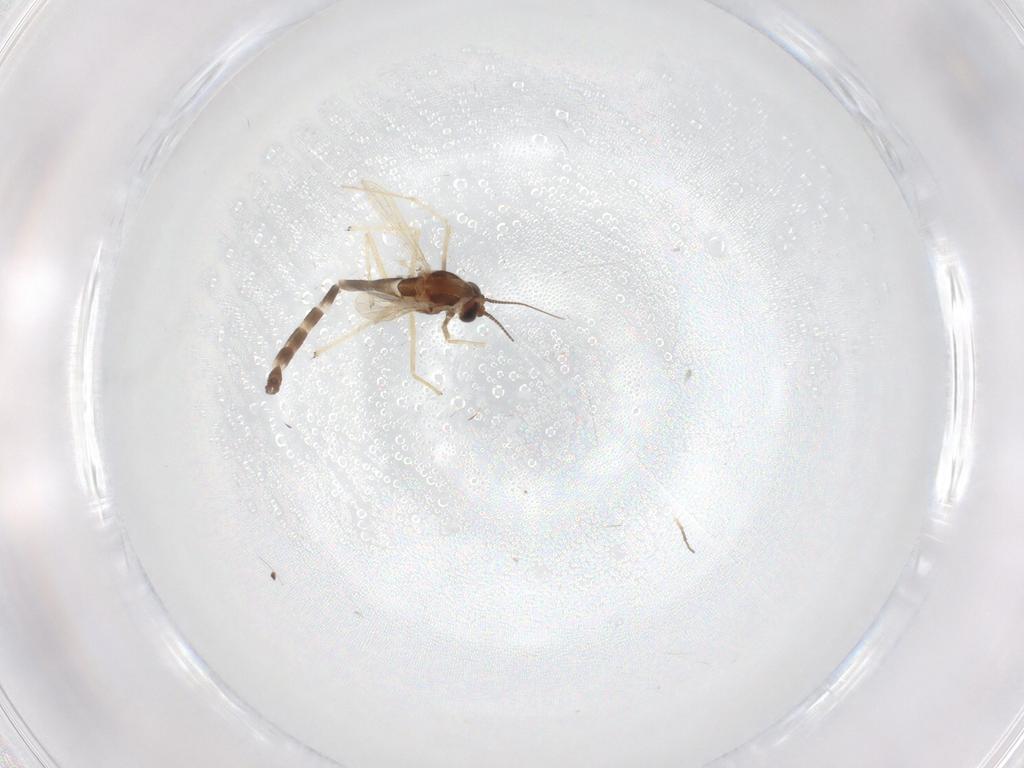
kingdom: Animalia
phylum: Arthropoda
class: Insecta
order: Diptera
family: Chironomidae
